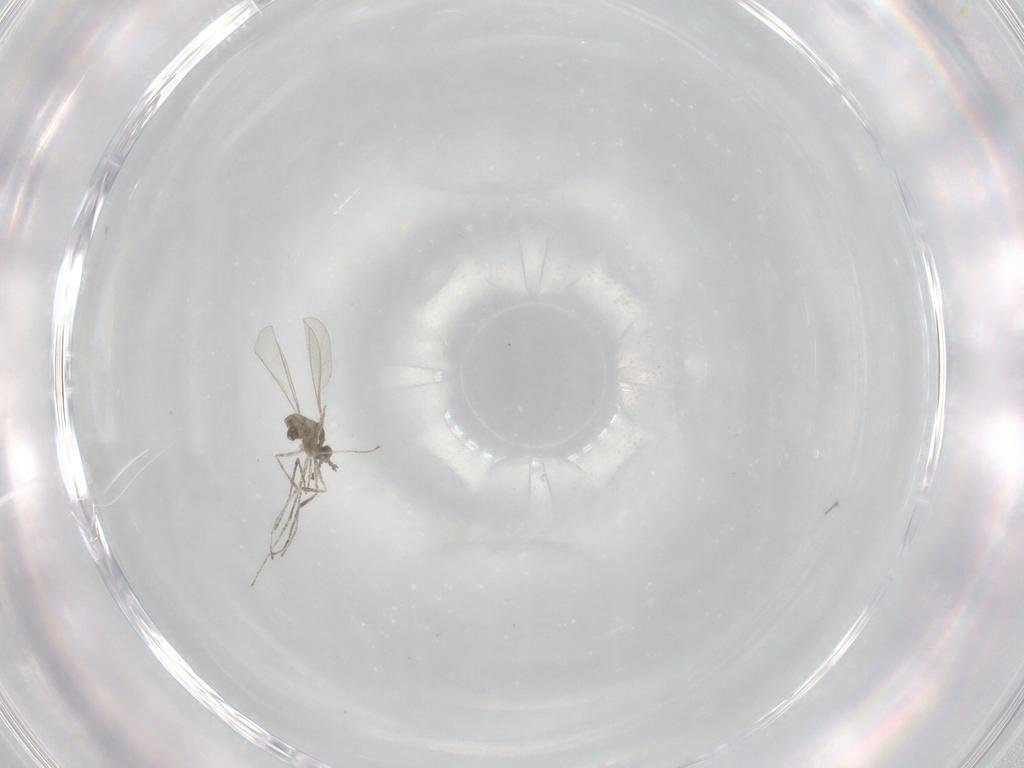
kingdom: Animalia
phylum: Arthropoda
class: Insecta
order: Diptera
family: Cecidomyiidae
